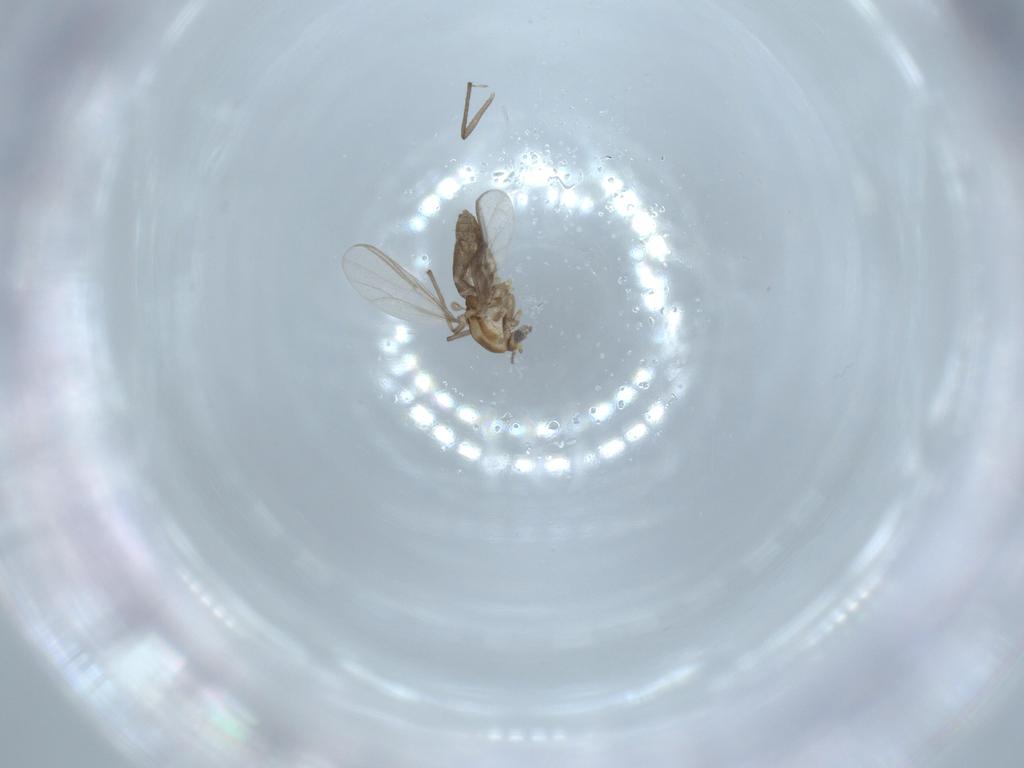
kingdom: Animalia
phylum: Arthropoda
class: Insecta
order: Diptera
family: Chironomidae
